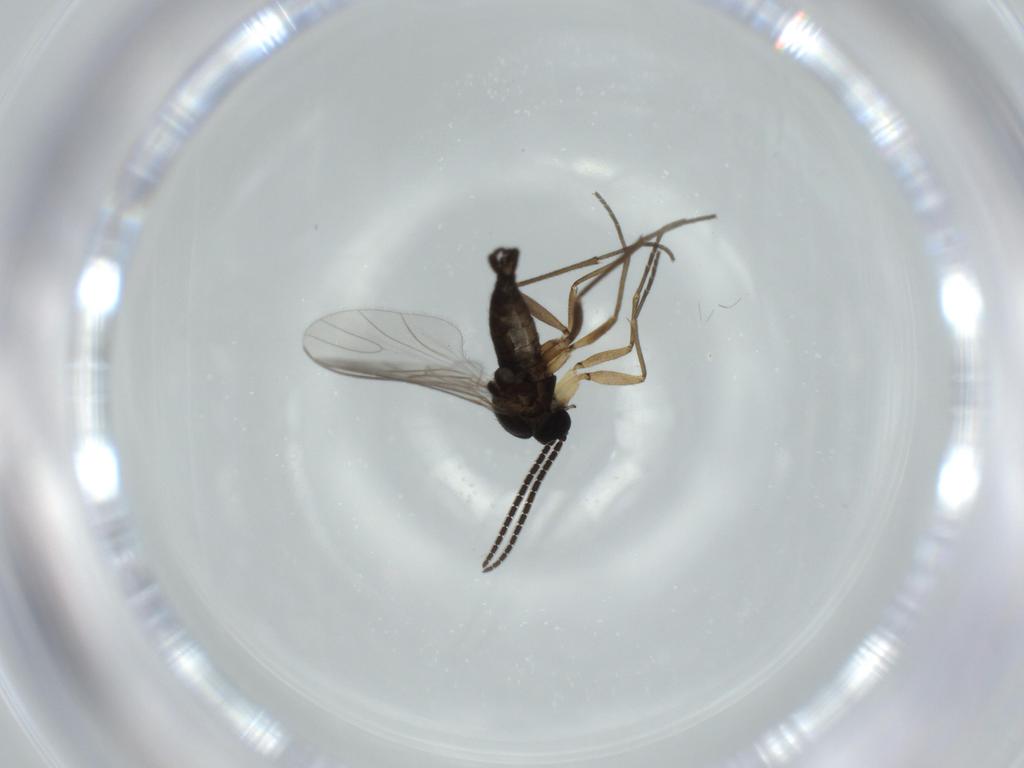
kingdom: Animalia
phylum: Arthropoda
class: Insecta
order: Diptera
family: Sciaridae
